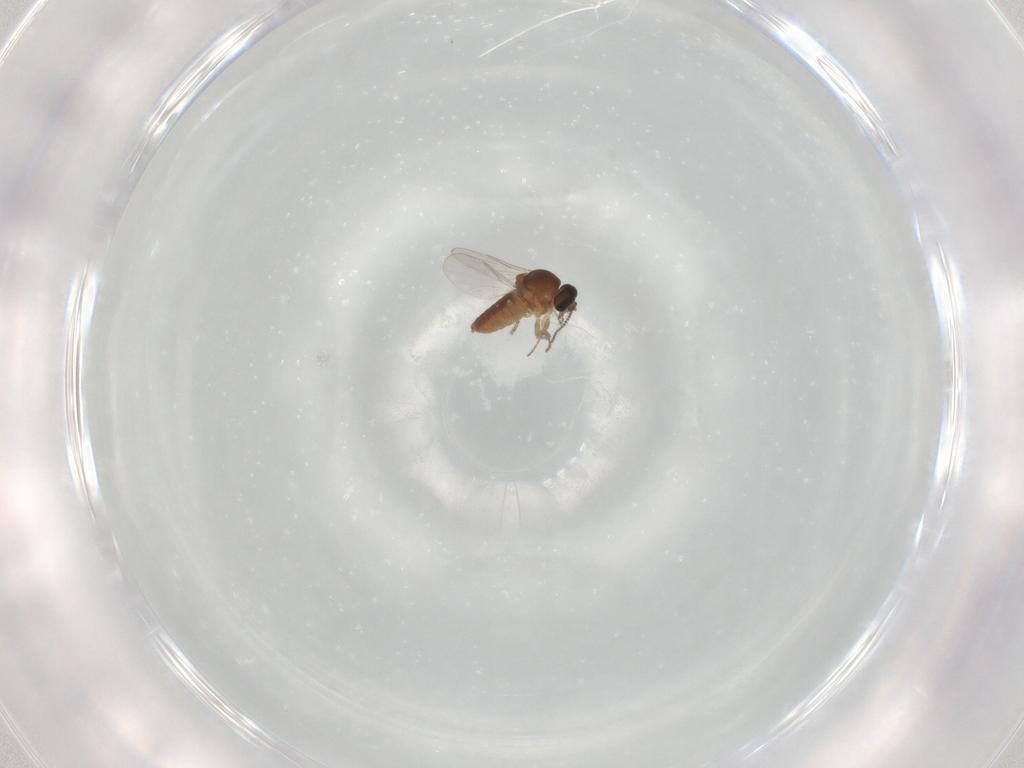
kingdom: Animalia
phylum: Arthropoda
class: Insecta
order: Diptera
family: Ceratopogonidae
